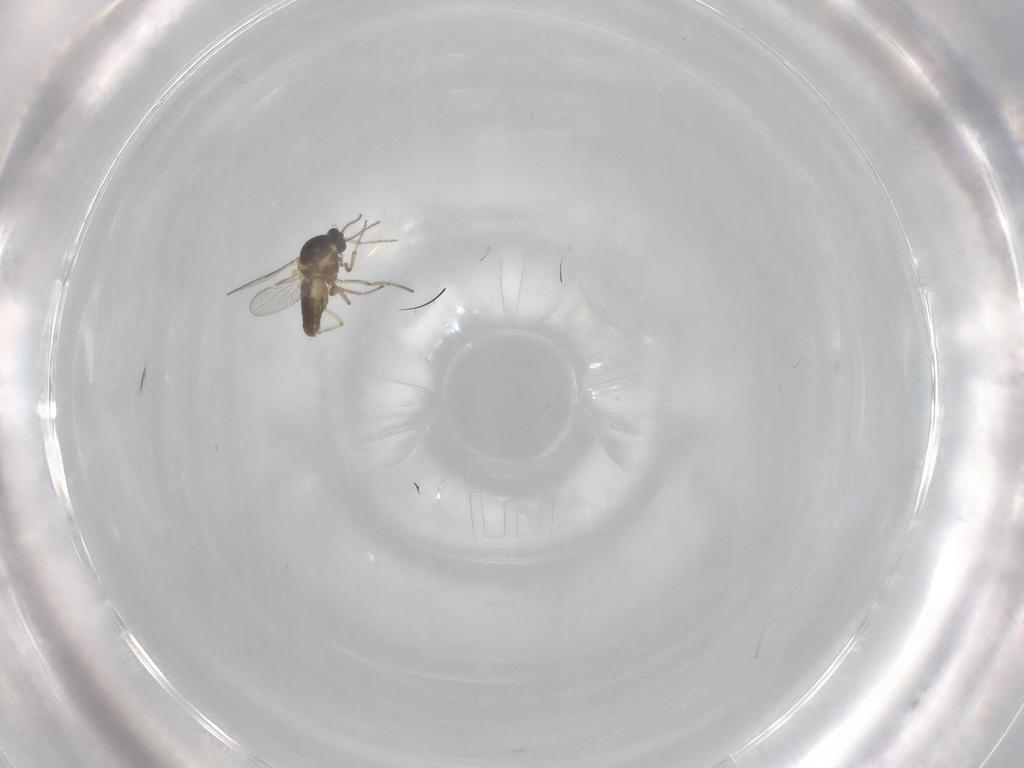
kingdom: Animalia
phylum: Arthropoda
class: Insecta
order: Diptera
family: Ceratopogonidae
